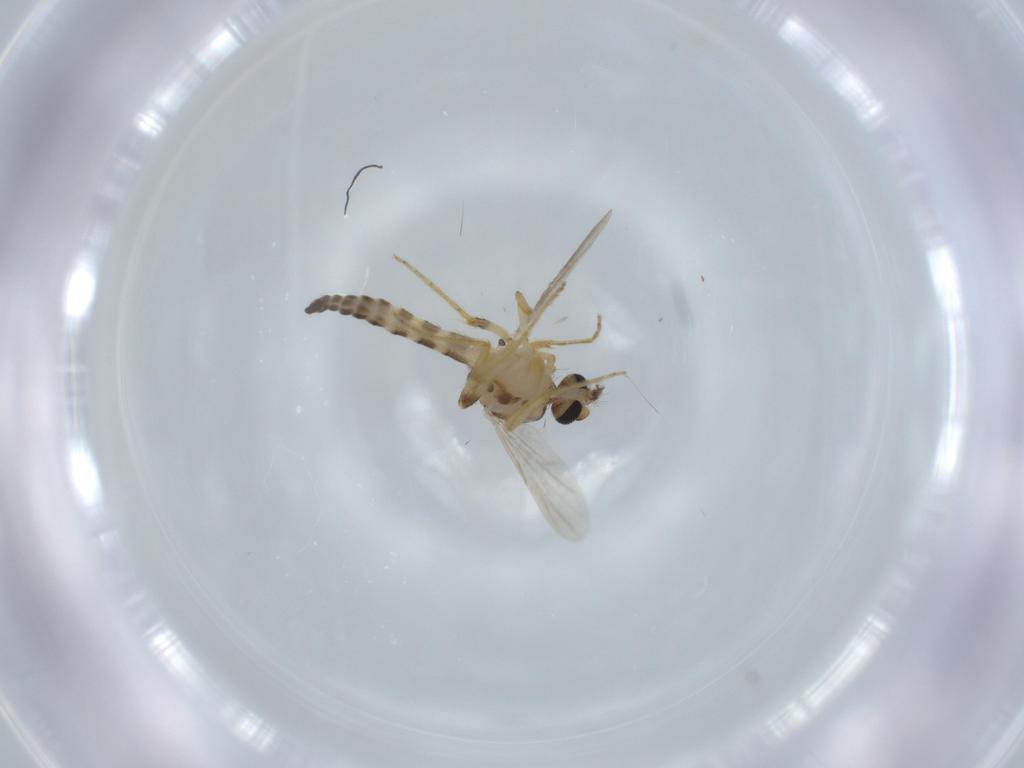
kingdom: Animalia
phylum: Arthropoda
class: Insecta
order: Diptera
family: Ceratopogonidae
